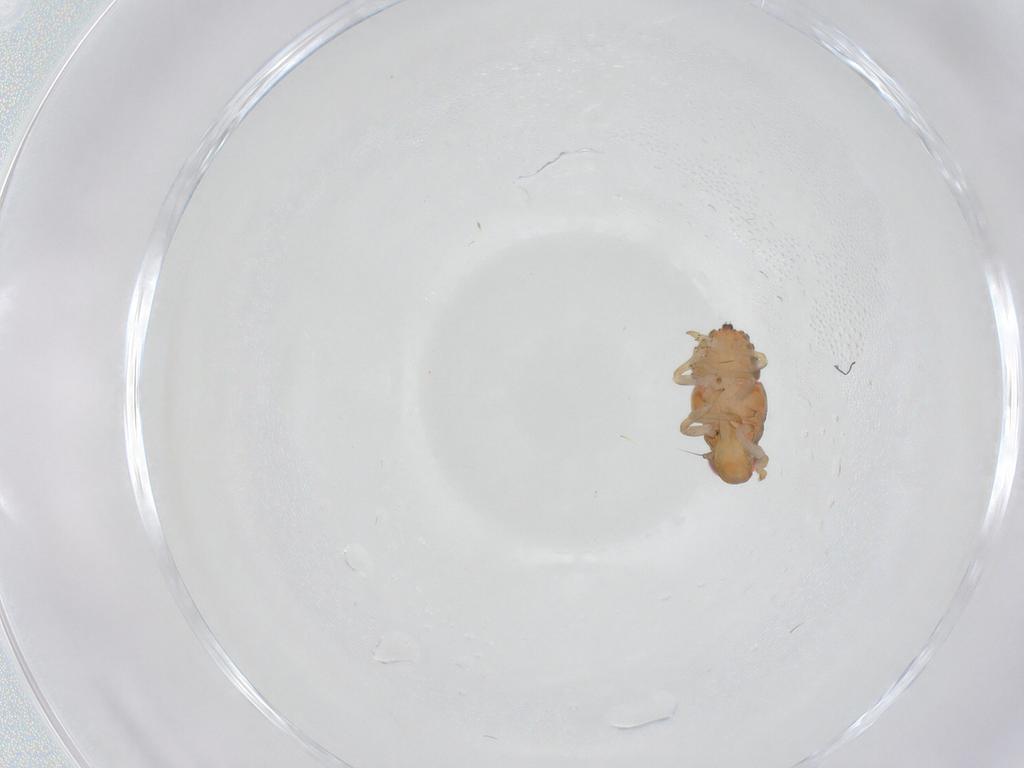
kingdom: Animalia
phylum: Arthropoda
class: Insecta
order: Hemiptera
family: Issidae
